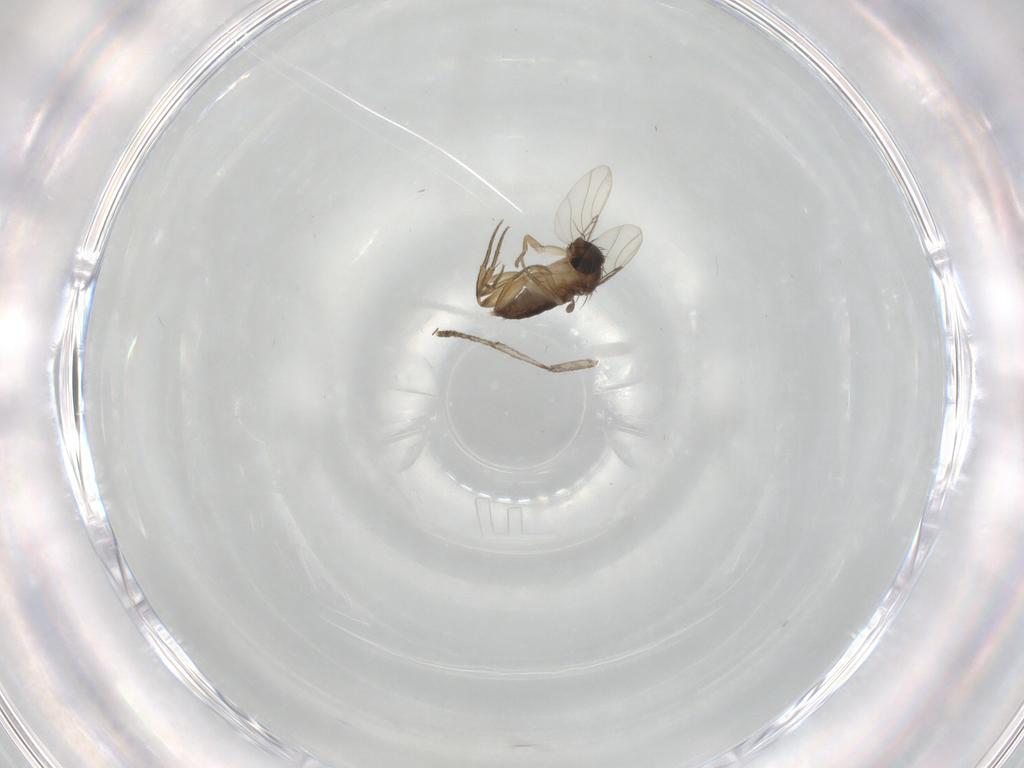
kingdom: Animalia
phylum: Arthropoda
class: Insecta
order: Diptera
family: Phoridae
